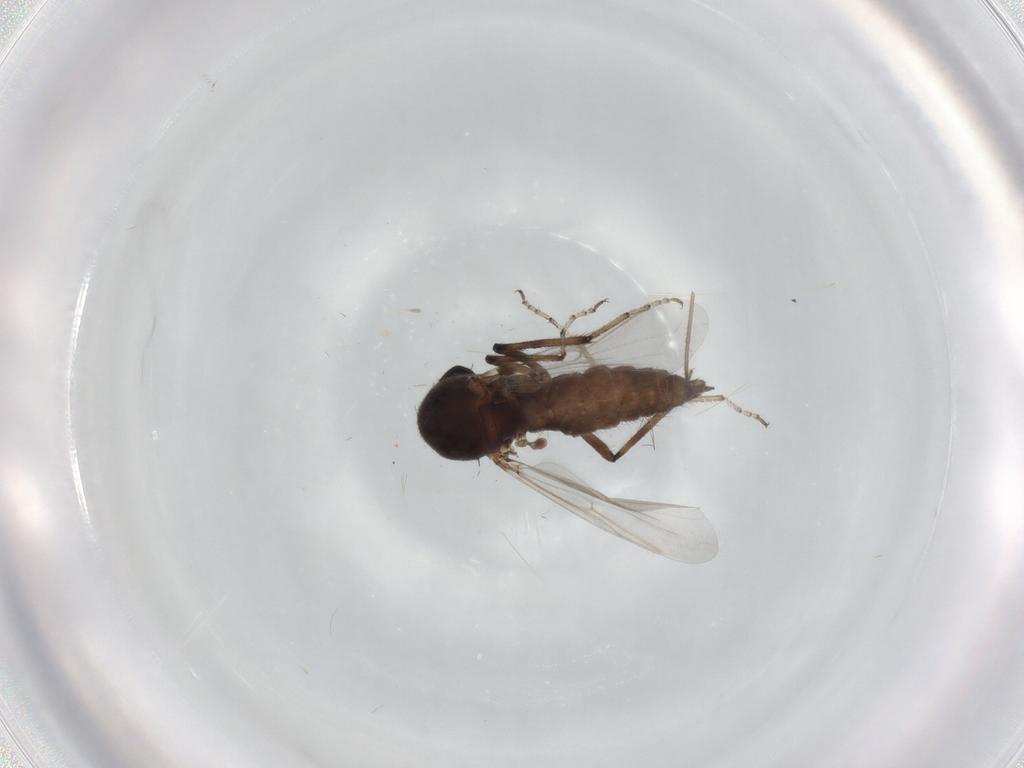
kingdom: Animalia
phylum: Arthropoda
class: Insecta
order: Diptera
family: Ceratopogonidae
